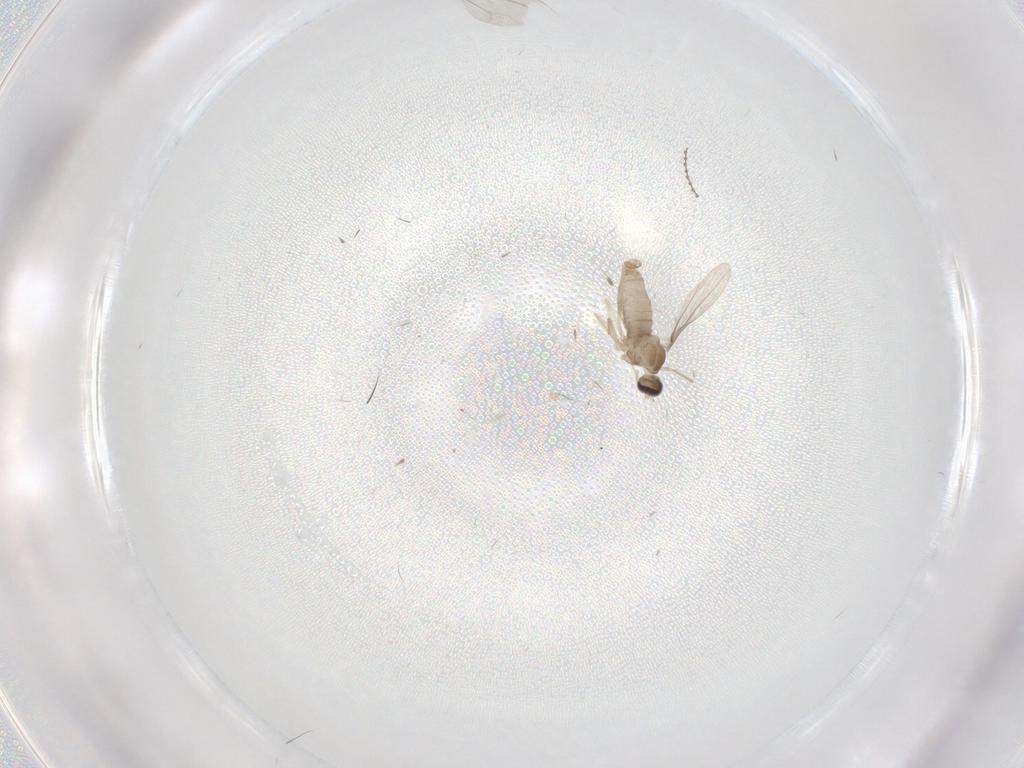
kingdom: Animalia
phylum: Arthropoda
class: Insecta
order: Diptera
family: Cecidomyiidae
